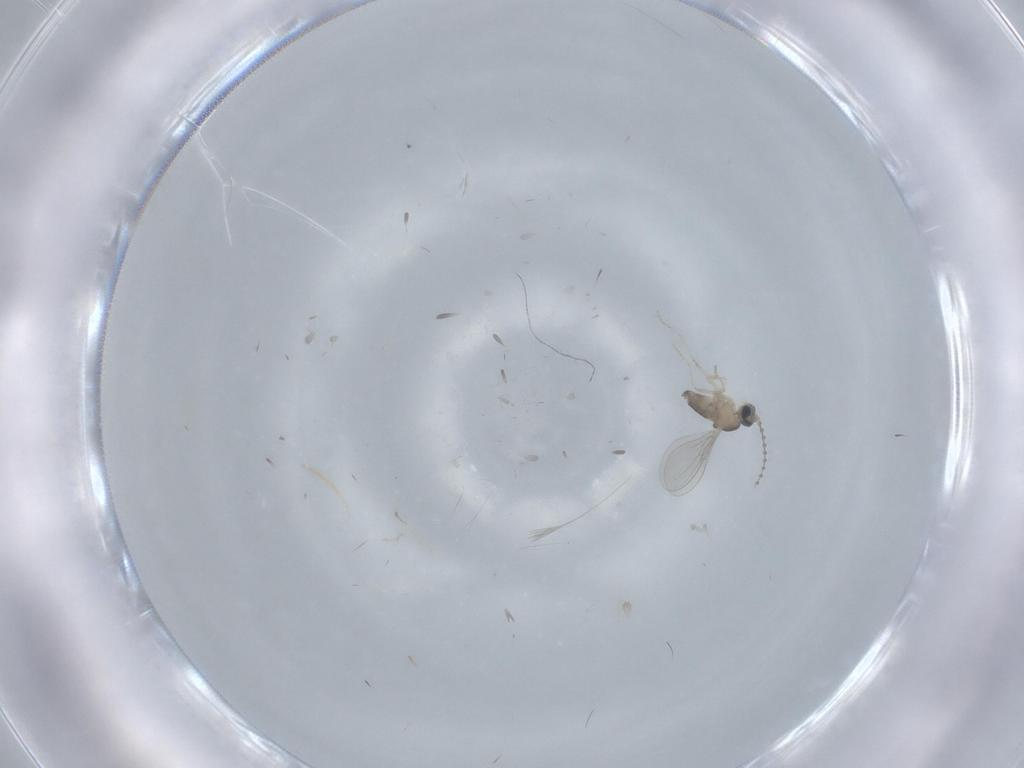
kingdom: Animalia
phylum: Arthropoda
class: Insecta
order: Diptera
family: Cecidomyiidae
